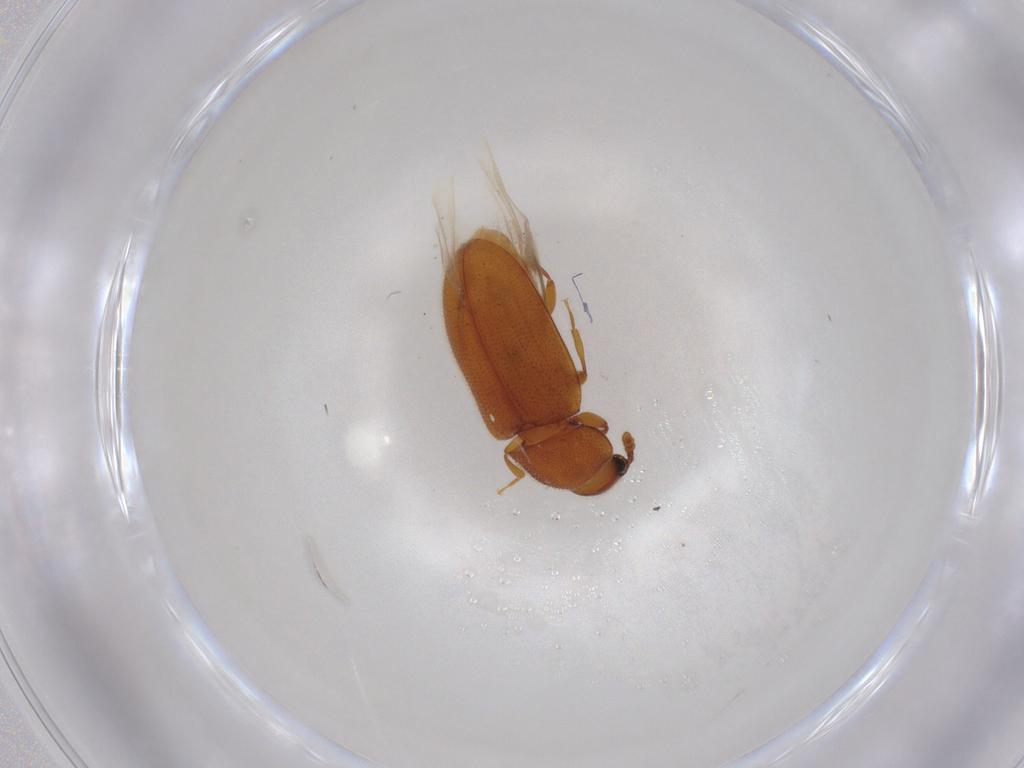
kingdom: Animalia
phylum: Arthropoda
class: Insecta
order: Coleoptera
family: Erotylidae
